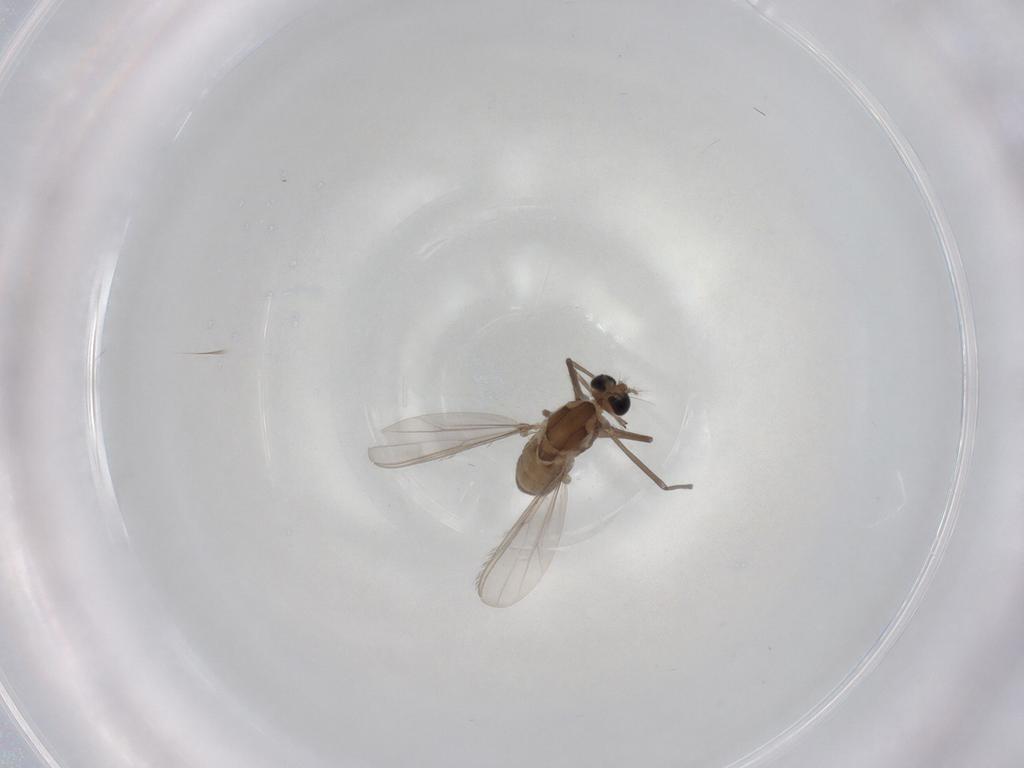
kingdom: Animalia
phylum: Arthropoda
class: Insecta
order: Diptera
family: Chironomidae
